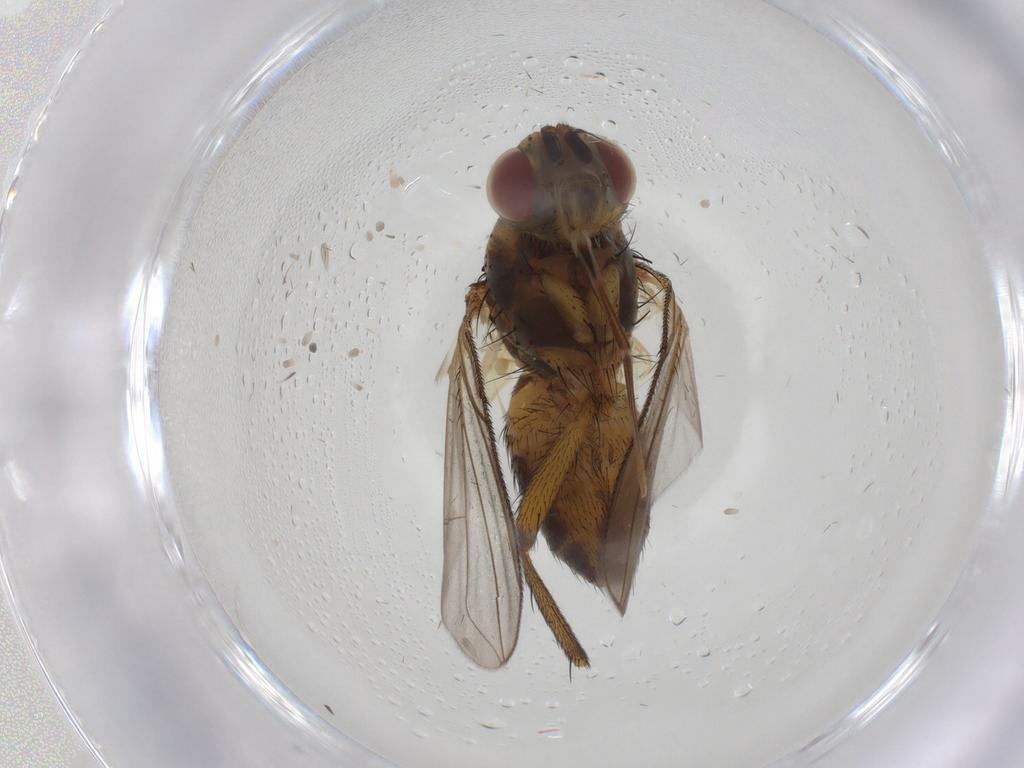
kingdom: Animalia
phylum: Arthropoda
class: Insecta
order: Diptera
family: Tachinidae
